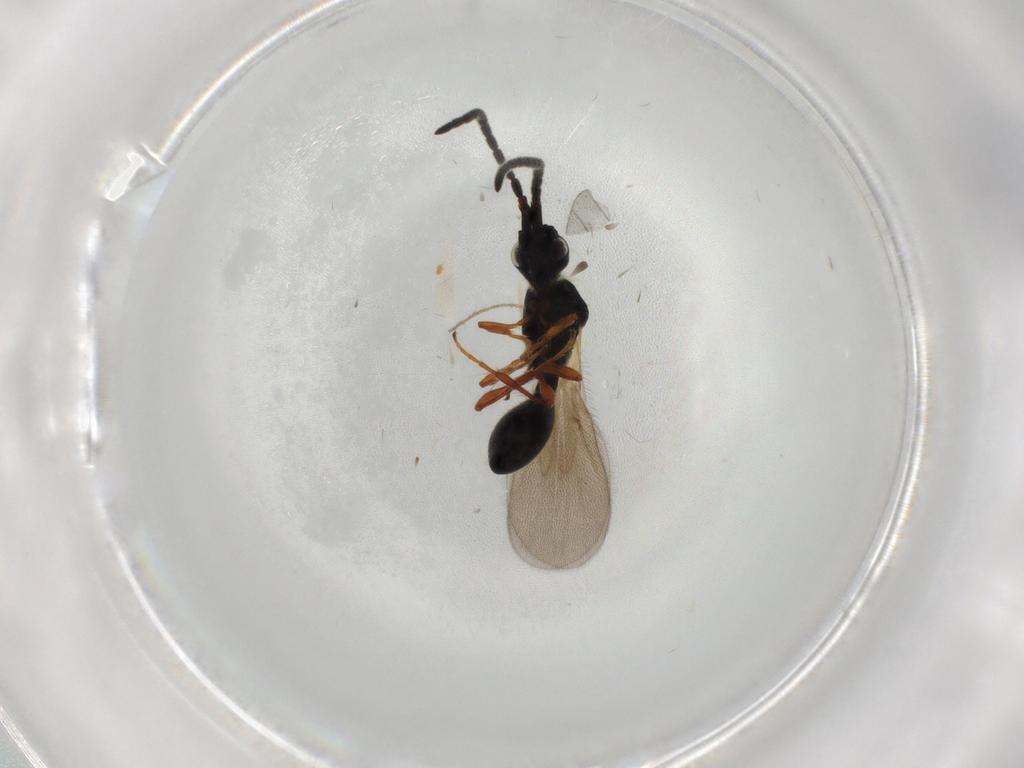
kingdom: Animalia
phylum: Arthropoda
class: Insecta
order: Hymenoptera
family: Diapriidae
